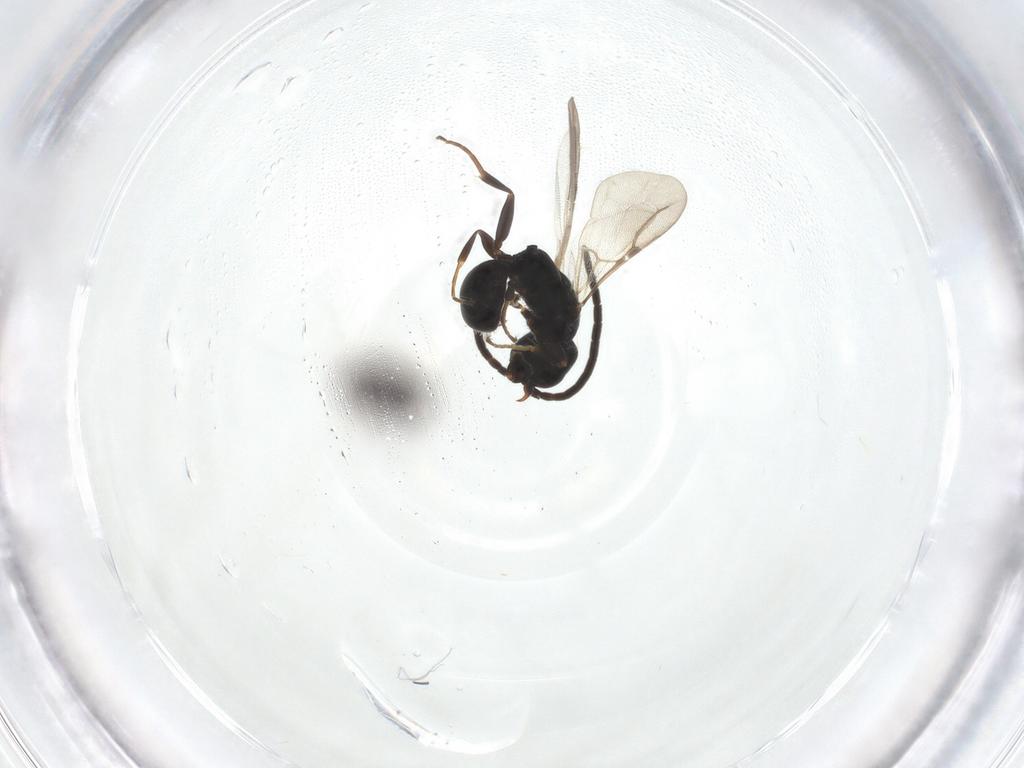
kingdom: Animalia
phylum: Arthropoda
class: Insecta
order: Hymenoptera
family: Bethylidae
